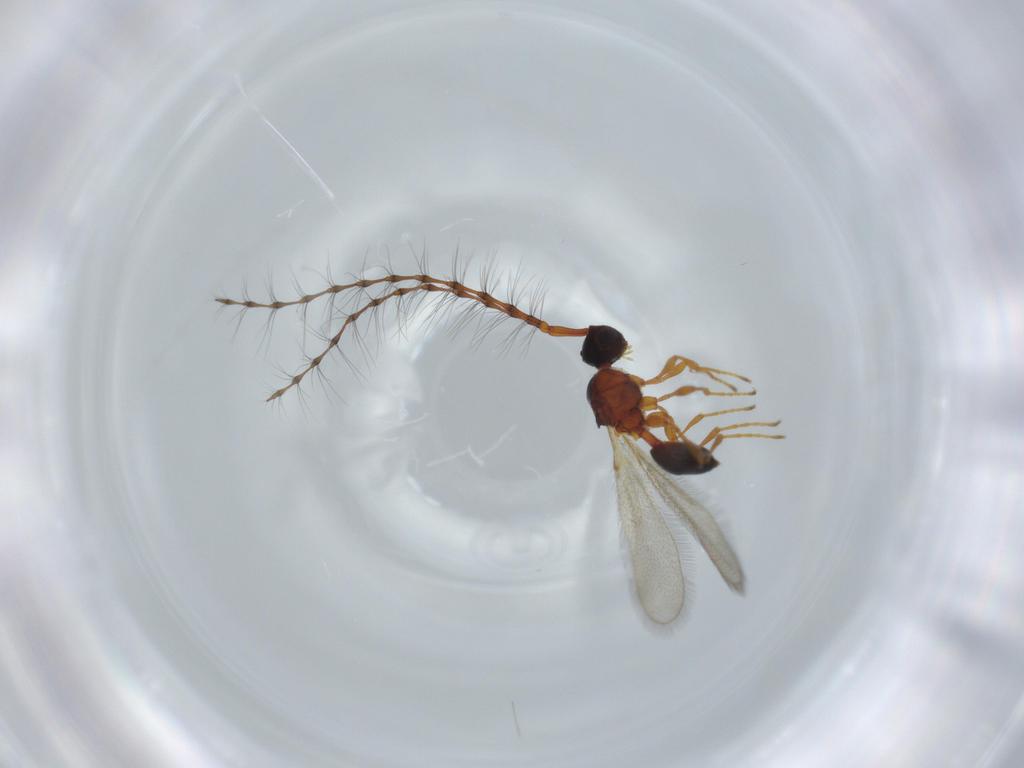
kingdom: Animalia
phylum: Arthropoda
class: Insecta
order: Hymenoptera
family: Diapriidae
